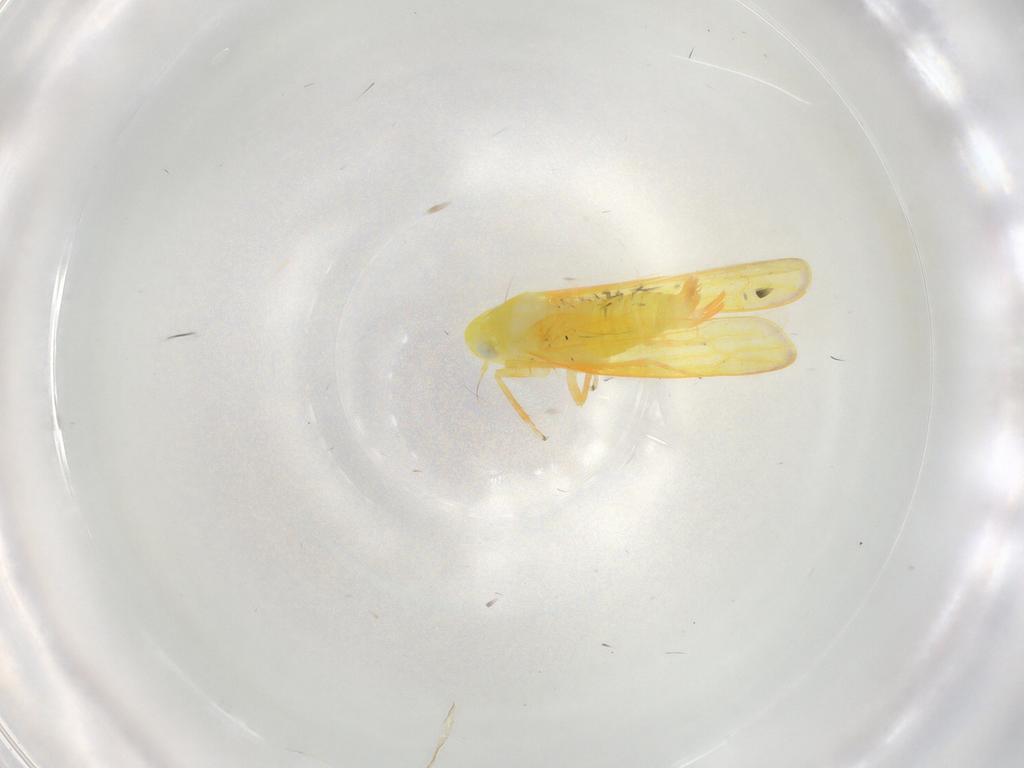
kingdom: Animalia
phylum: Arthropoda
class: Insecta
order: Hemiptera
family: Cicadellidae
